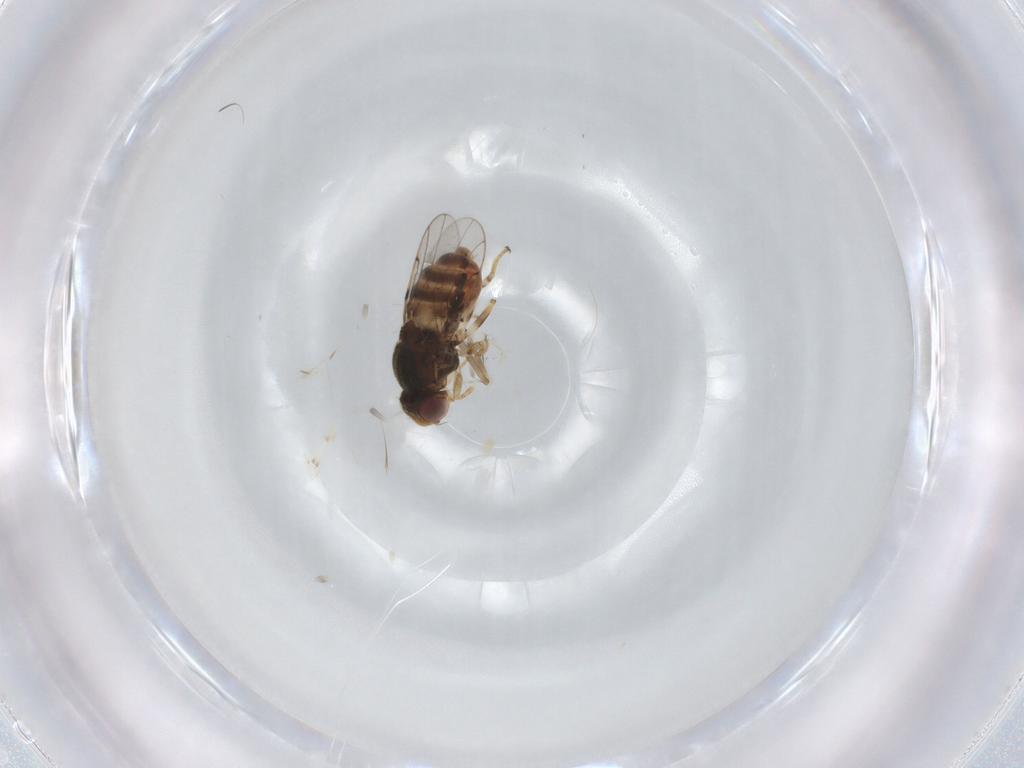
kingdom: Animalia
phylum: Arthropoda
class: Insecta
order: Diptera
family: Chloropidae
